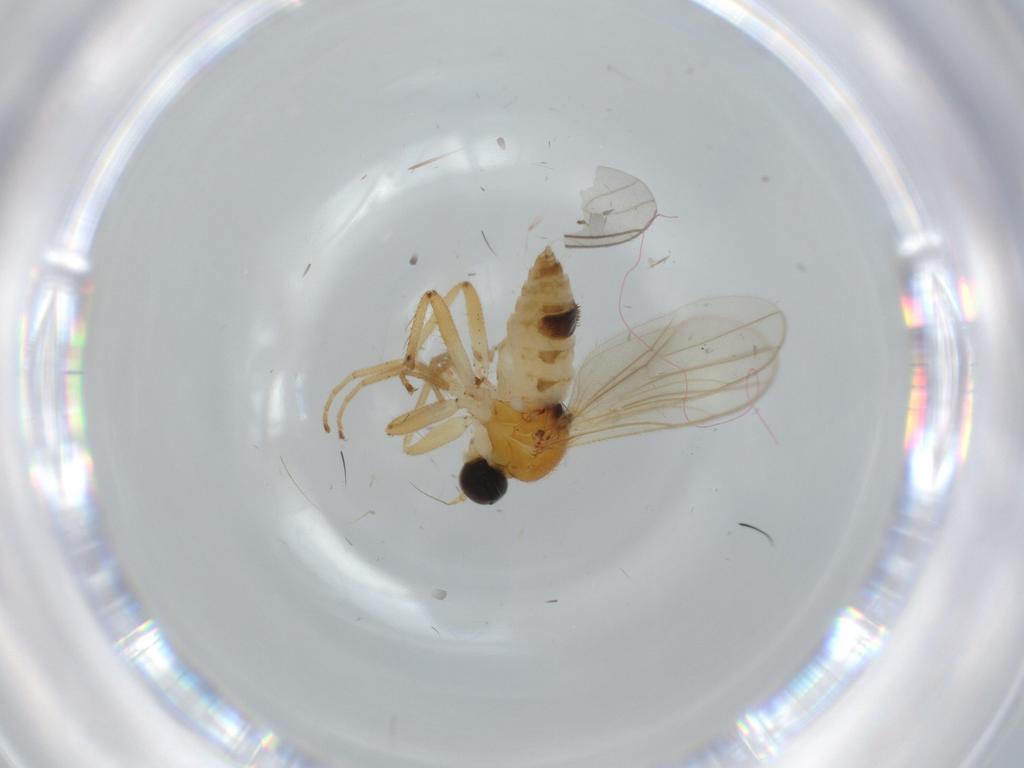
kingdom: Animalia
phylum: Arthropoda
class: Insecta
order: Diptera
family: Hybotidae
